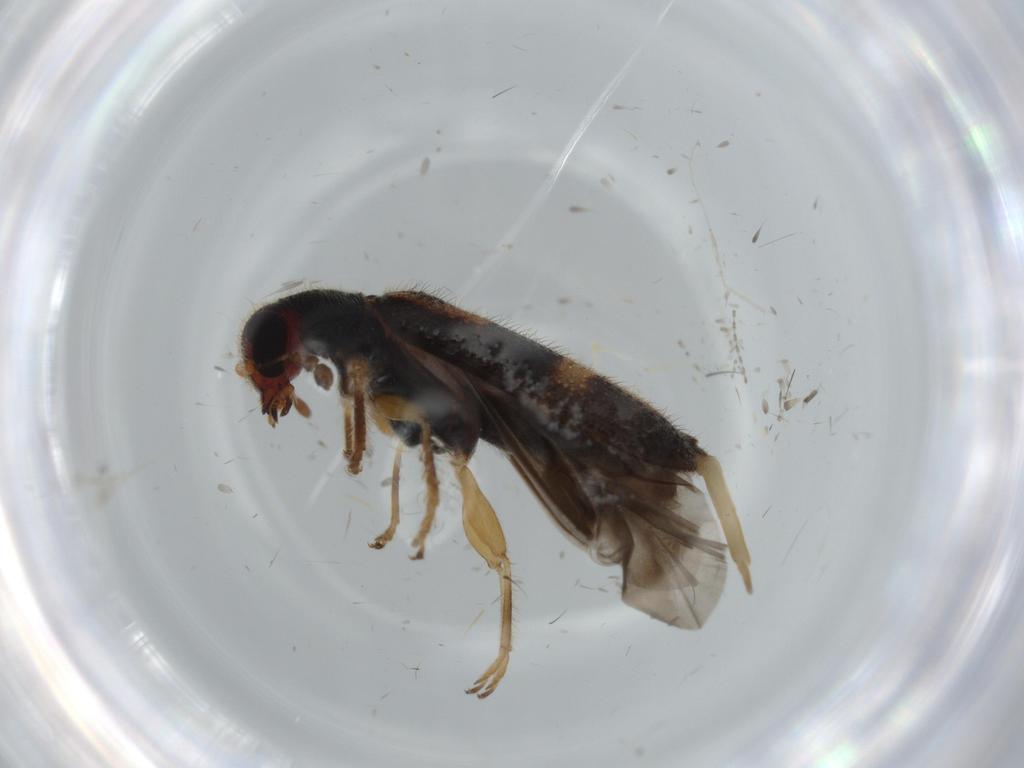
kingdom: Animalia
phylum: Arthropoda
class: Insecta
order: Coleoptera
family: Cleridae
